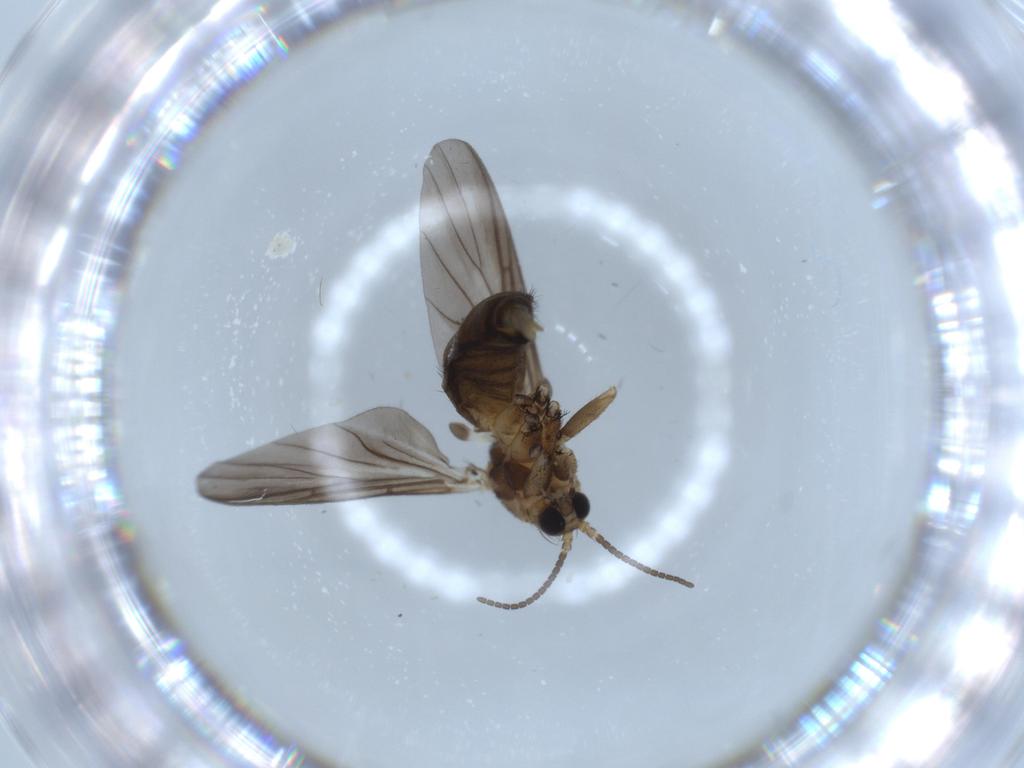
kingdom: Animalia
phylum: Arthropoda
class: Insecta
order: Diptera
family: Mycetophilidae
